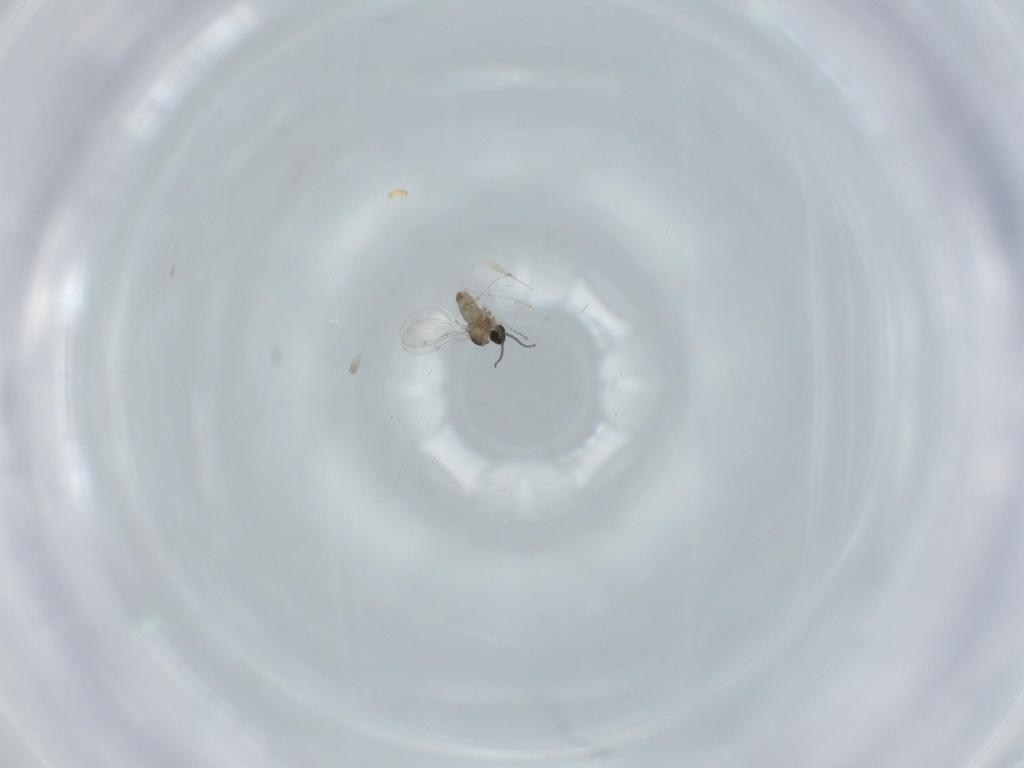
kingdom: Animalia
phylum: Arthropoda
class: Insecta
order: Diptera
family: Cecidomyiidae
